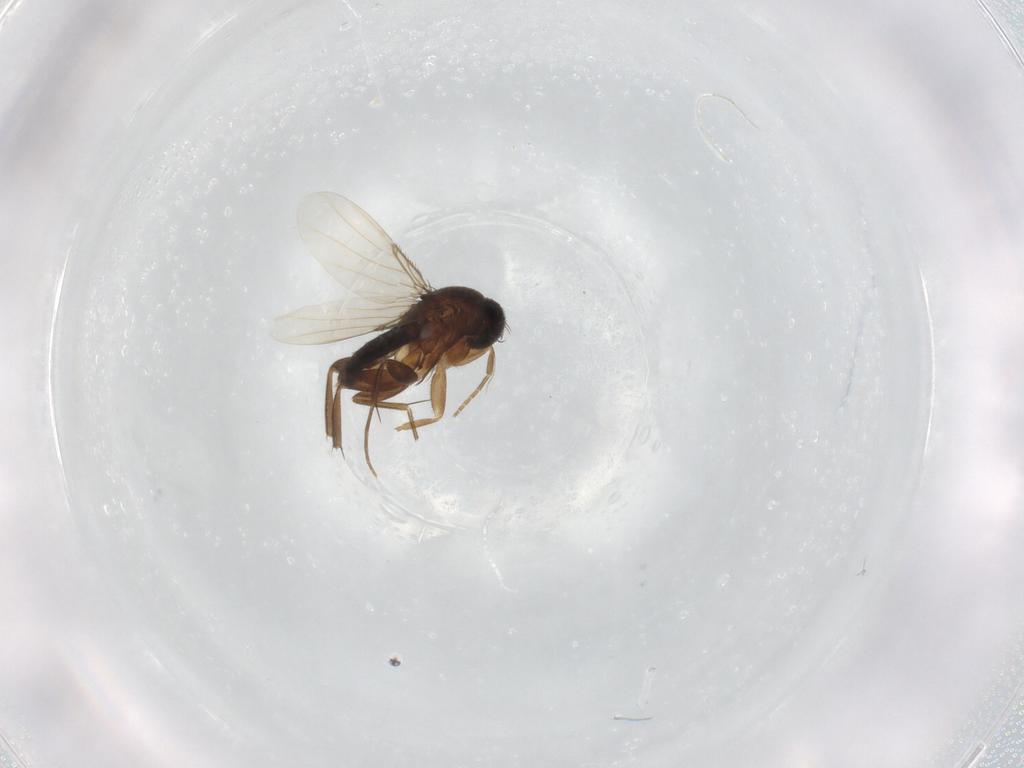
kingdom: Animalia
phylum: Arthropoda
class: Insecta
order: Diptera
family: Phoridae
